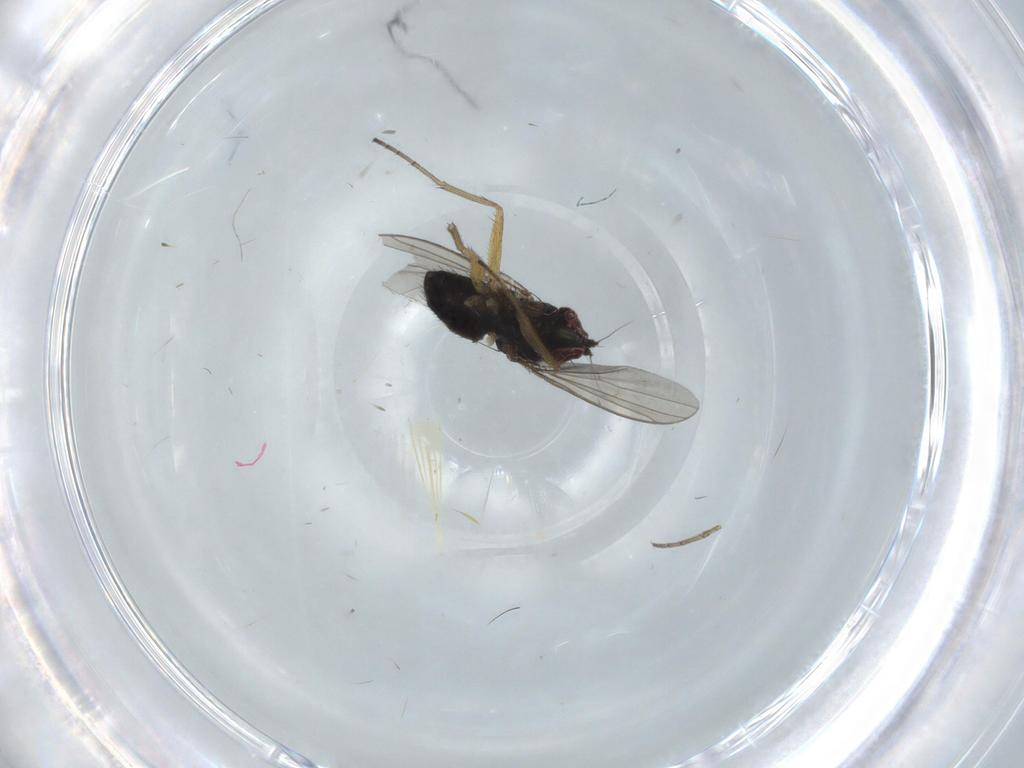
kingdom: Animalia
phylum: Arthropoda
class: Insecta
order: Diptera
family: Dolichopodidae
